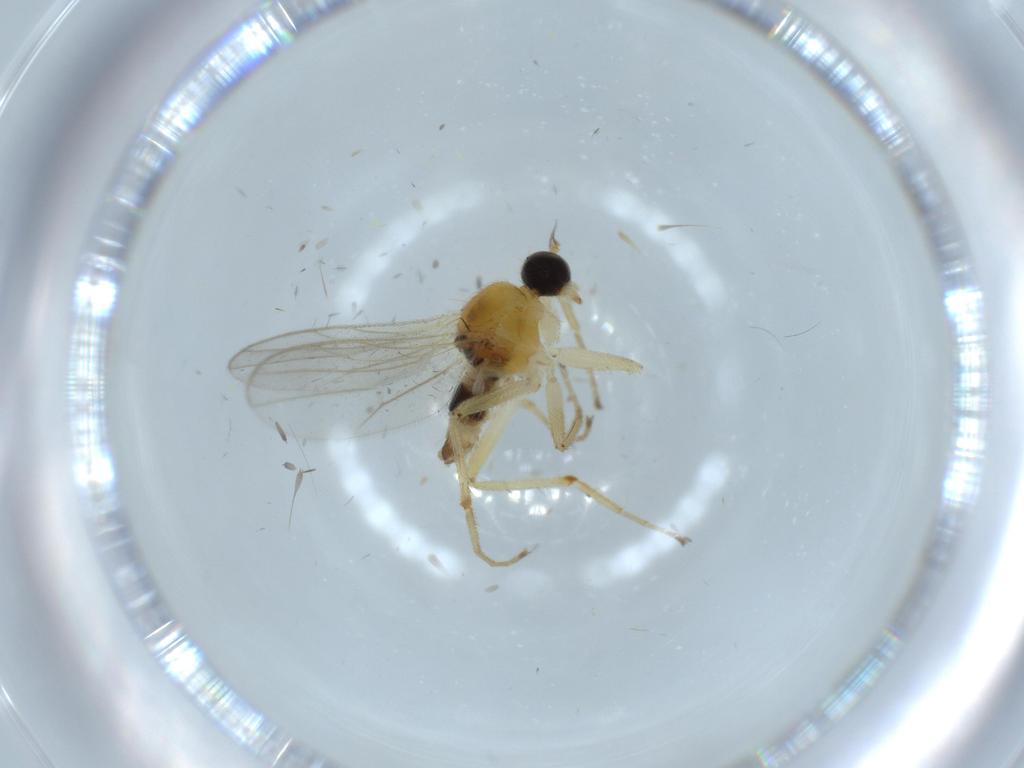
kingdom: Animalia
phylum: Arthropoda
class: Insecta
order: Diptera
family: Hybotidae
